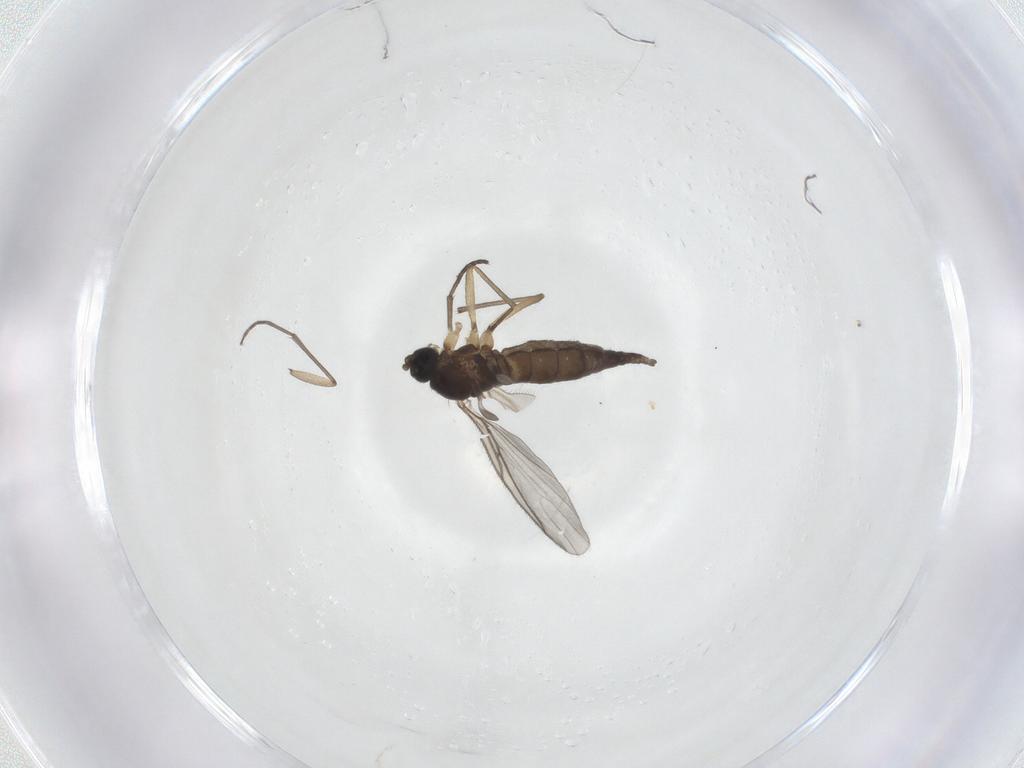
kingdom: Animalia
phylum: Arthropoda
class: Insecta
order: Diptera
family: Sciaridae
